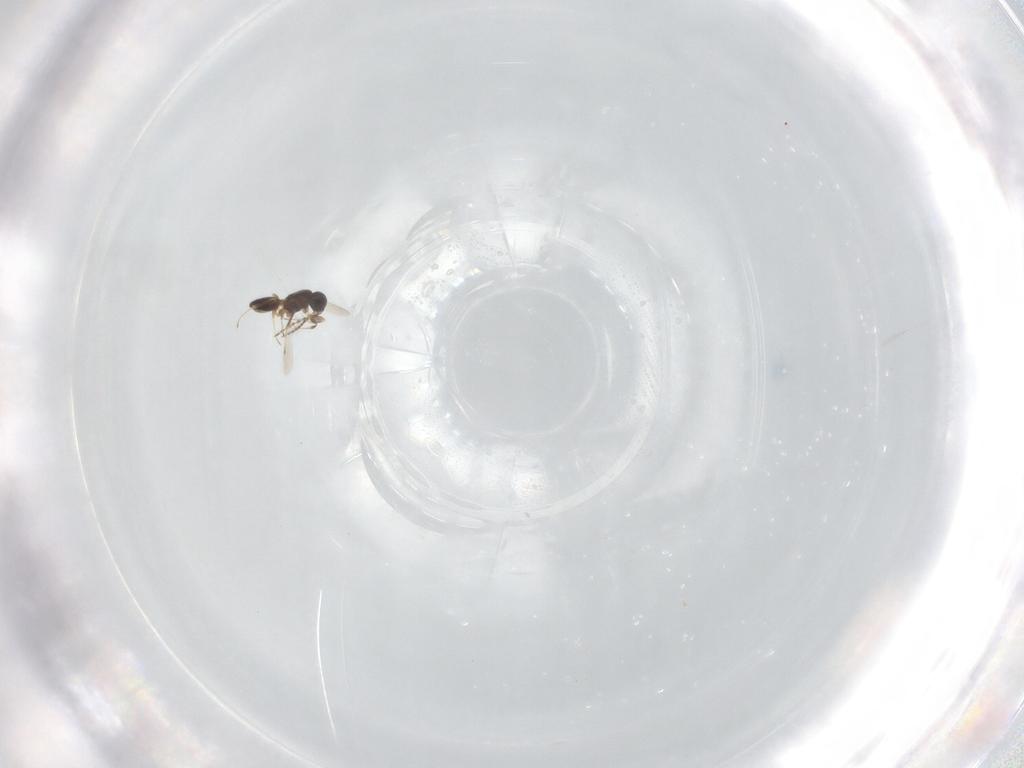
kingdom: Animalia
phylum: Arthropoda
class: Insecta
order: Hymenoptera
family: Platygastridae
